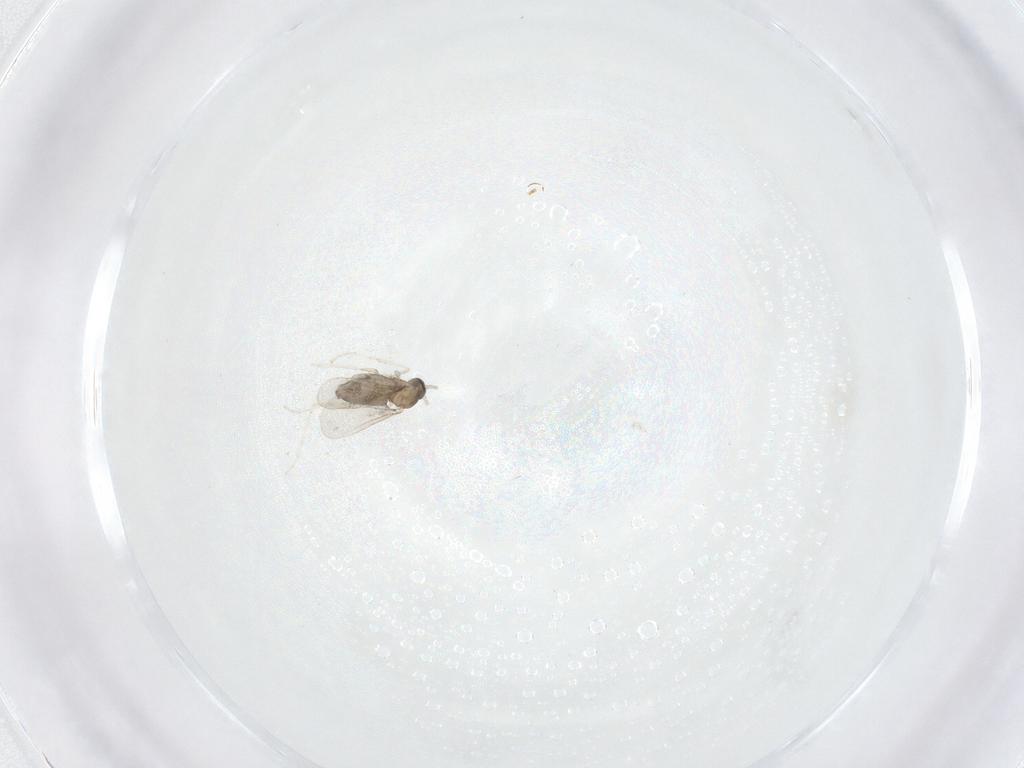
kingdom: Animalia
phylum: Arthropoda
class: Insecta
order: Diptera
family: Cecidomyiidae
